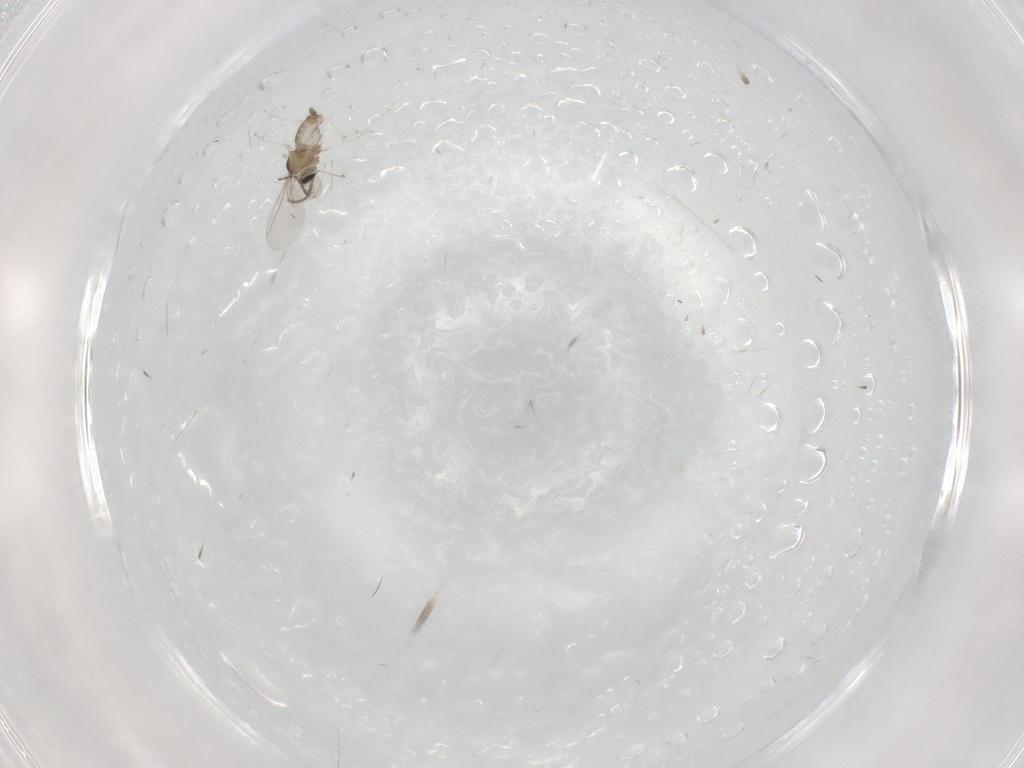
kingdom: Animalia
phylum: Arthropoda
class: Insecta
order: Diptera
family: Cecidomyiidae
